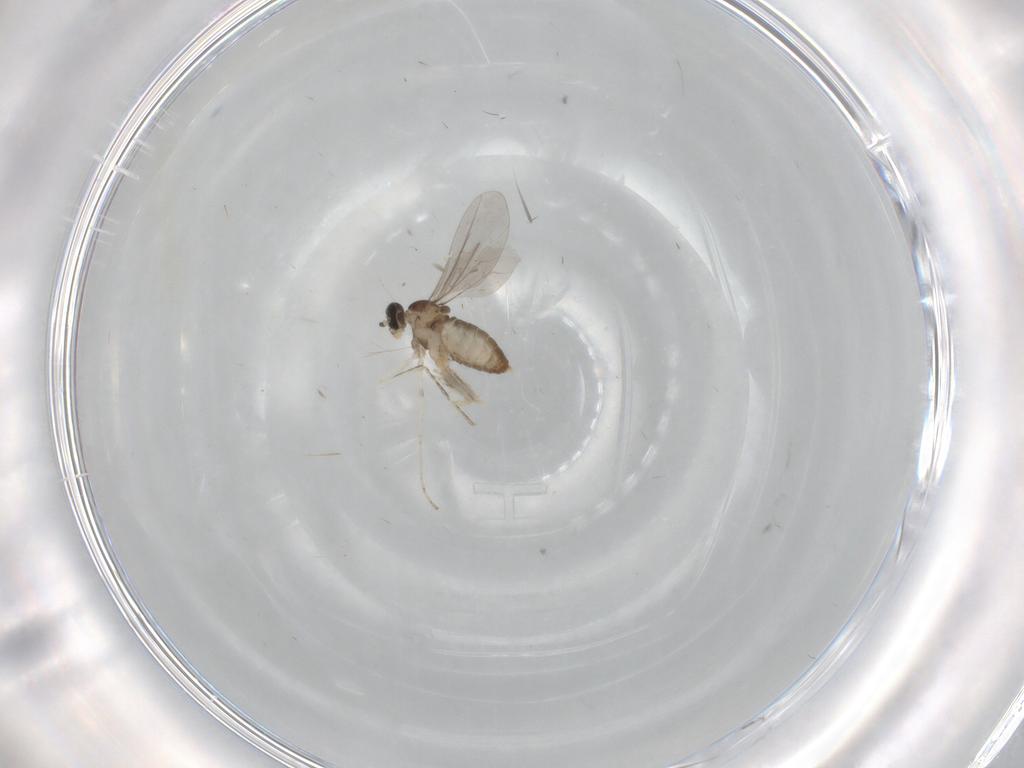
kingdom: Animalia
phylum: Arthropoda
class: Insecta
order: Diptera
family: Cecidomyiidae
